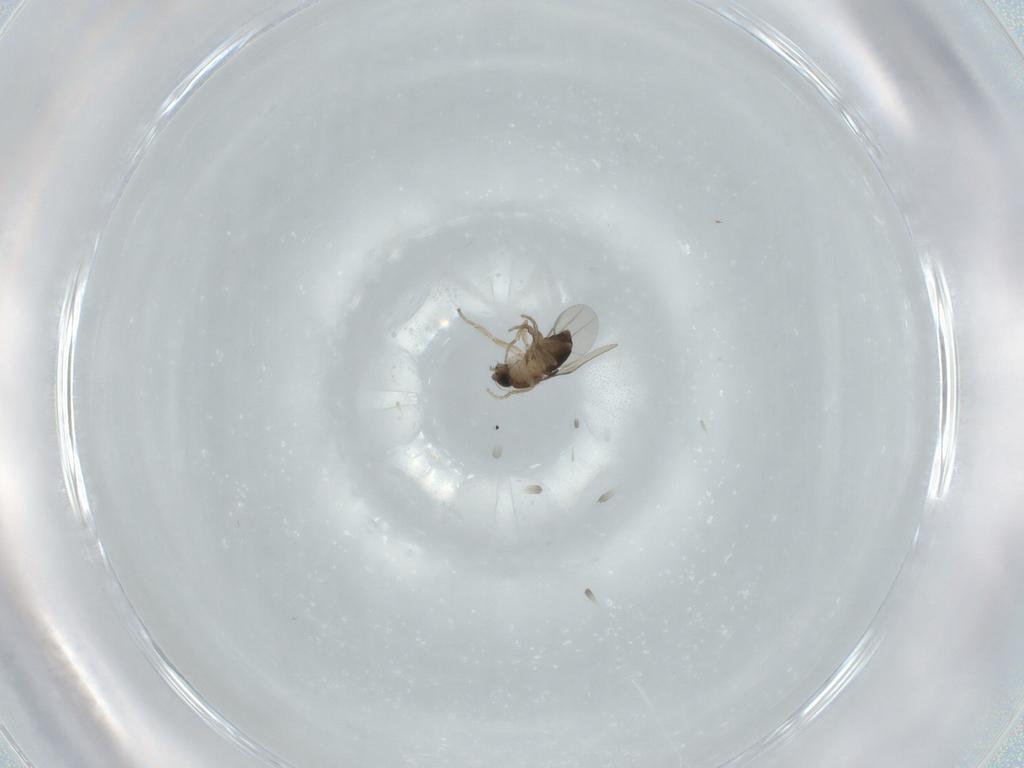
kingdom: Animalia
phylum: Arthropoda
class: Insecta
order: Diptera
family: Phoridae
